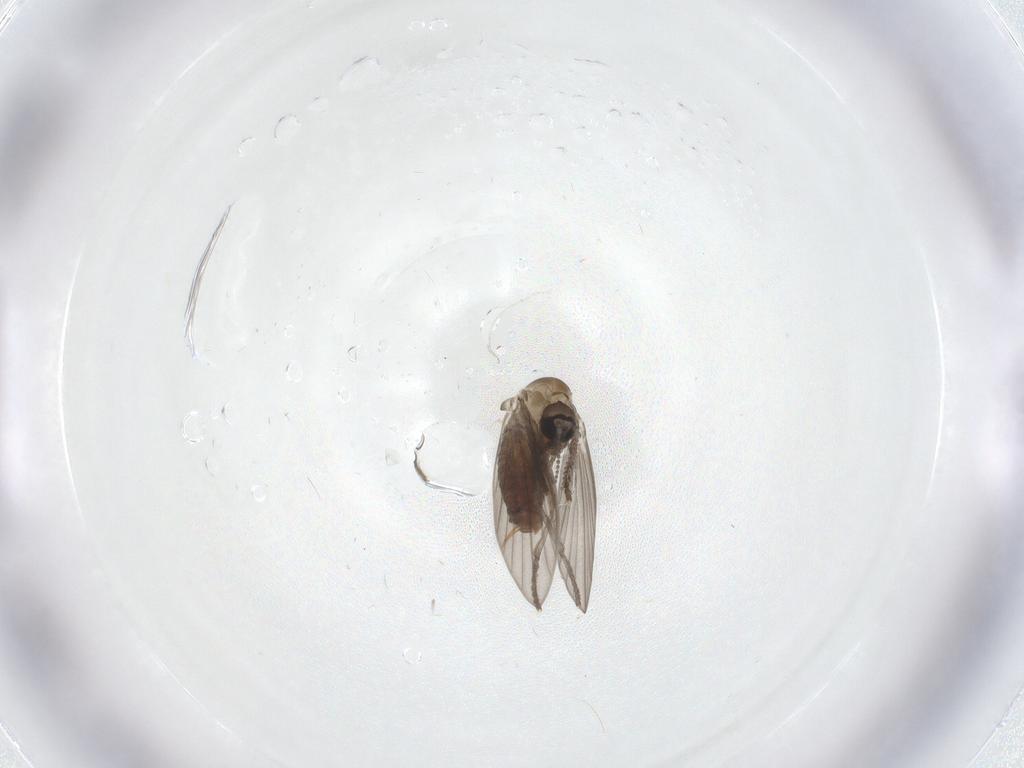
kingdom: Animalia
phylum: Arthropoda
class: Insecta
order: Diptera
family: Psychodidae
